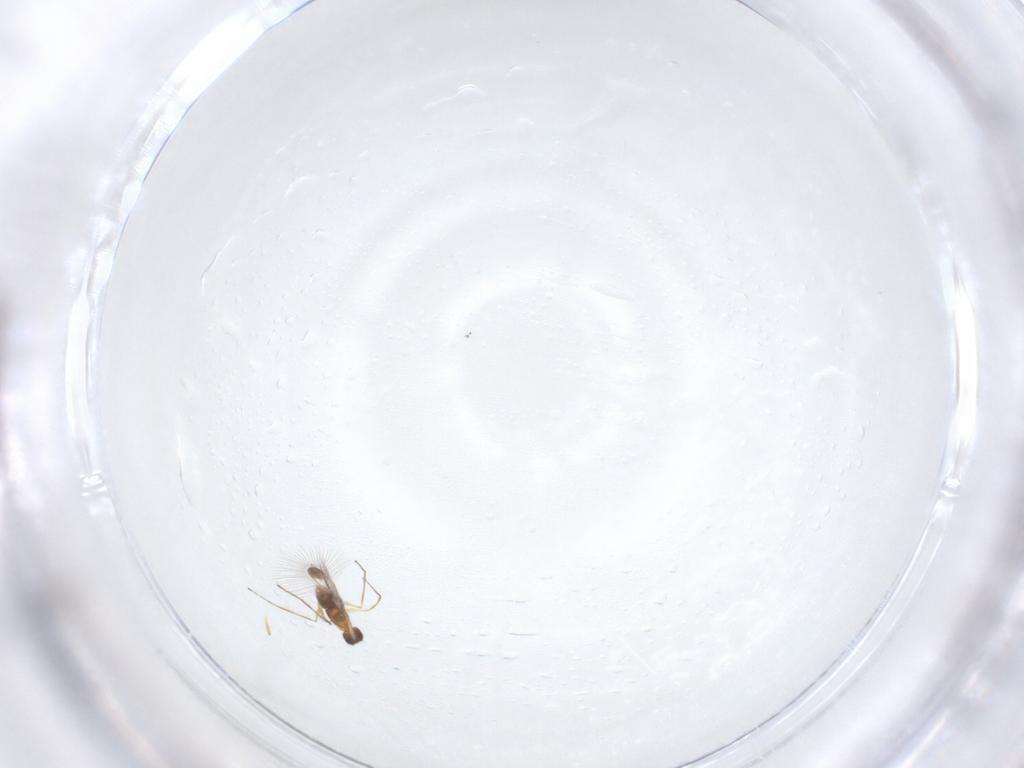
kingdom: Animalia
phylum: Arthropoda
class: Insecta
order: Hymenoptera
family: Mymaridae
